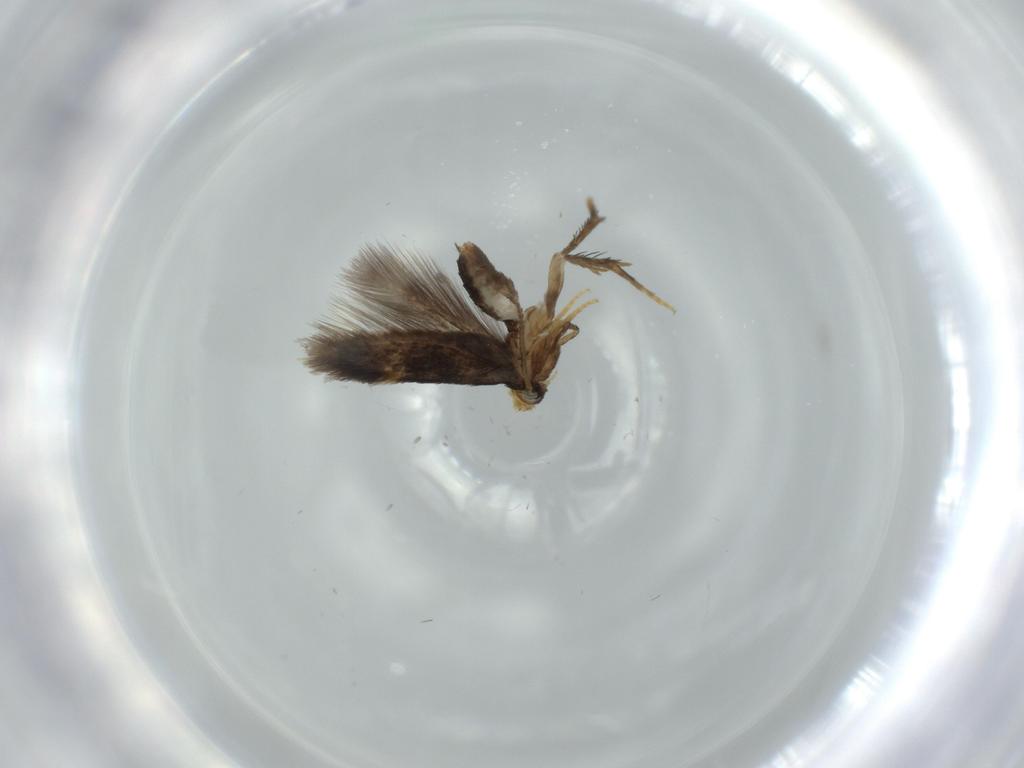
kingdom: Animalia
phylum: Arthropoda
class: Insecta
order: Lepidoptera
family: Nepticulidae
